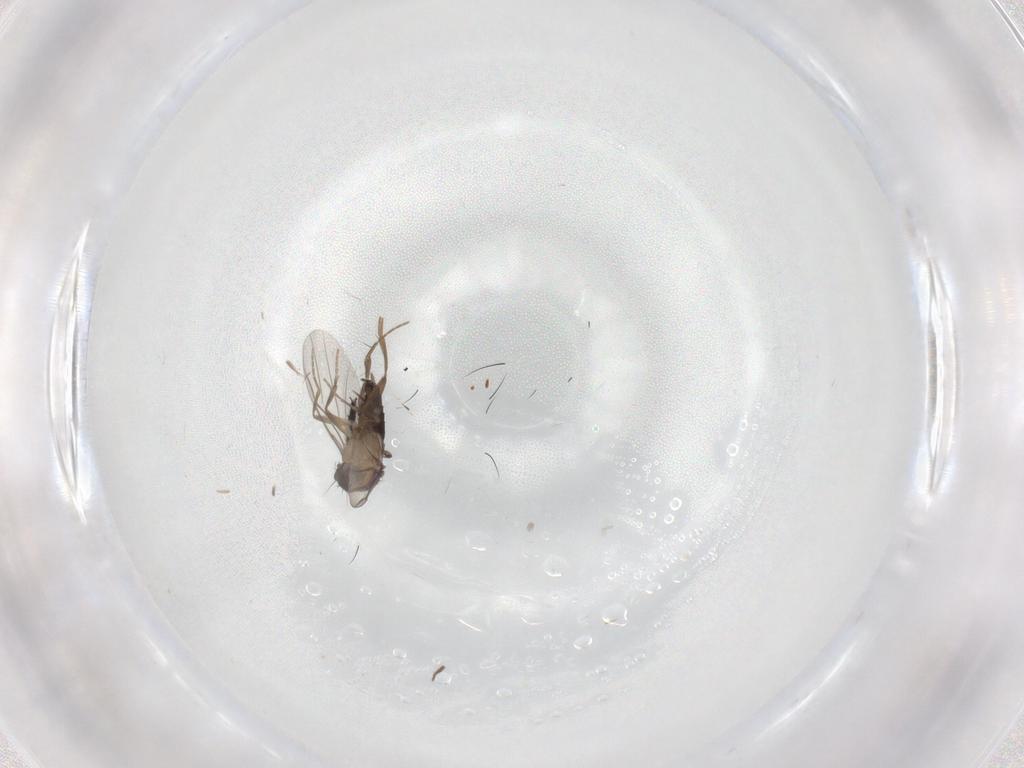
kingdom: Animalia
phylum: Arthropoda
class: Insecta
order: Diptera
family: Phoridae
